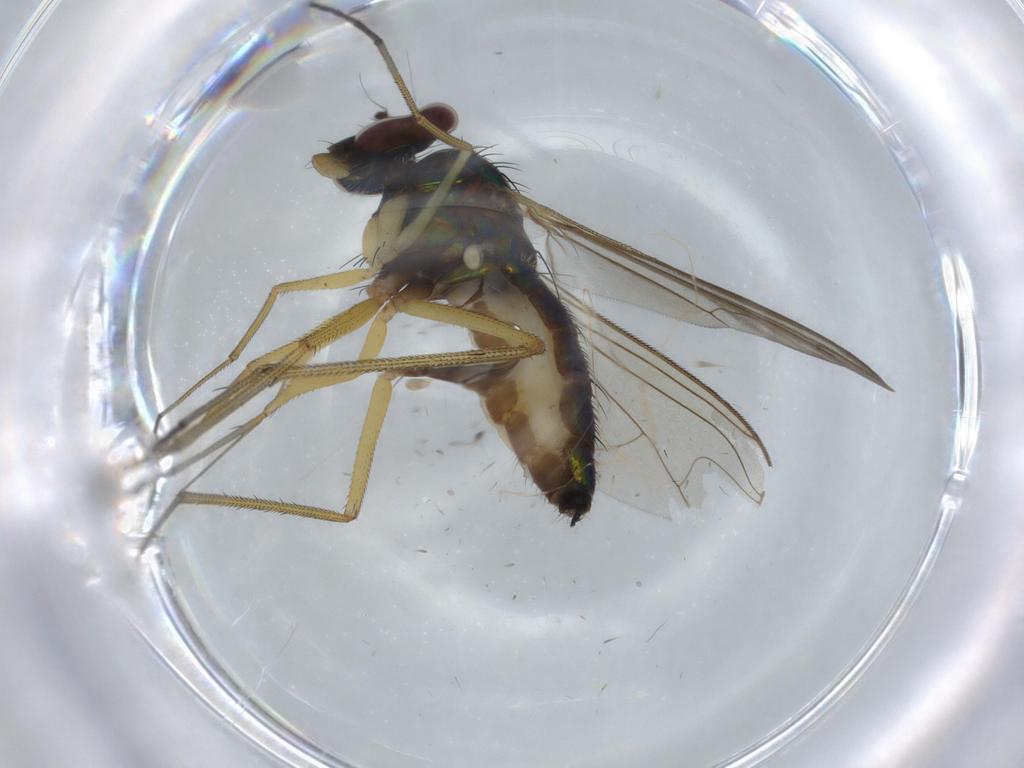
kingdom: Animalia
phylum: Arthropoda
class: Insecta
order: Diptera
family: Dolichopodidae
